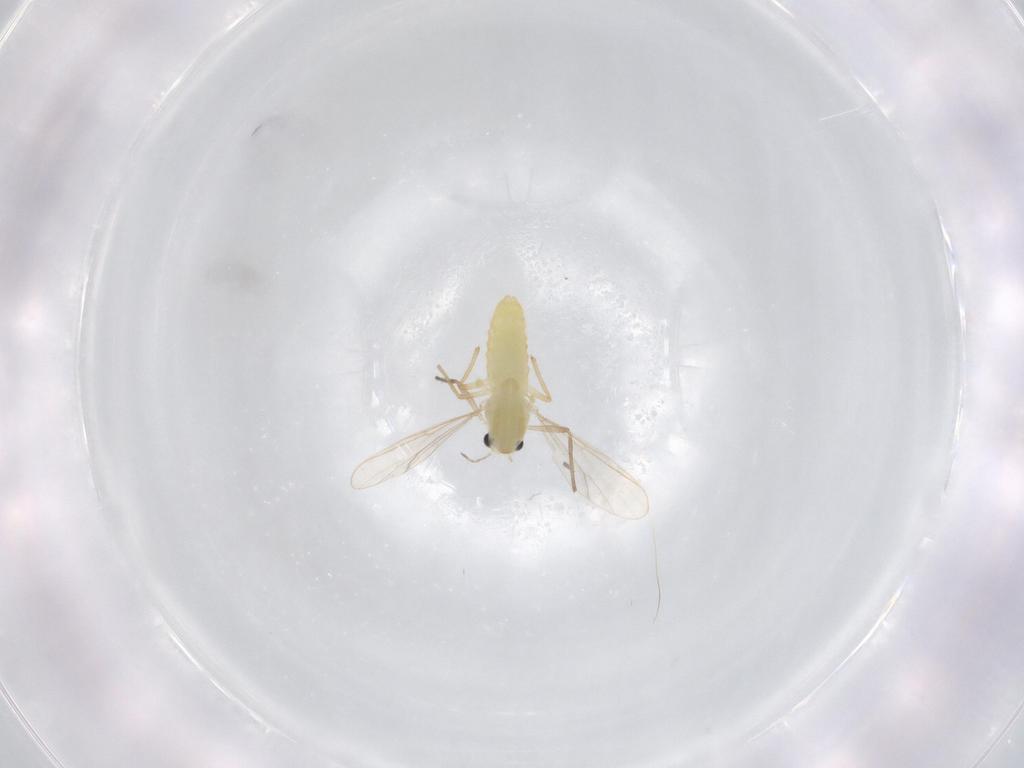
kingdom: Animalia
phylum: Arthropoda
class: Insecta
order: Diptera
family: Chironomidae
